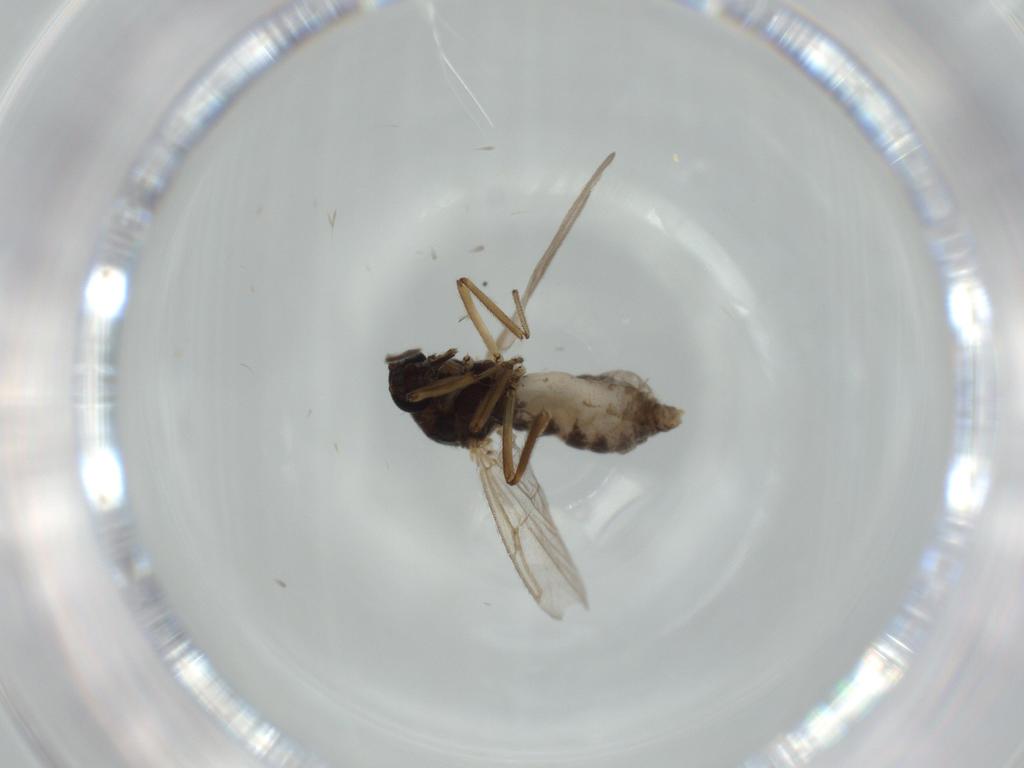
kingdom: Animalia
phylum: Arthropoda
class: Insecta
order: Diptera
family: Ceratopogonidae
